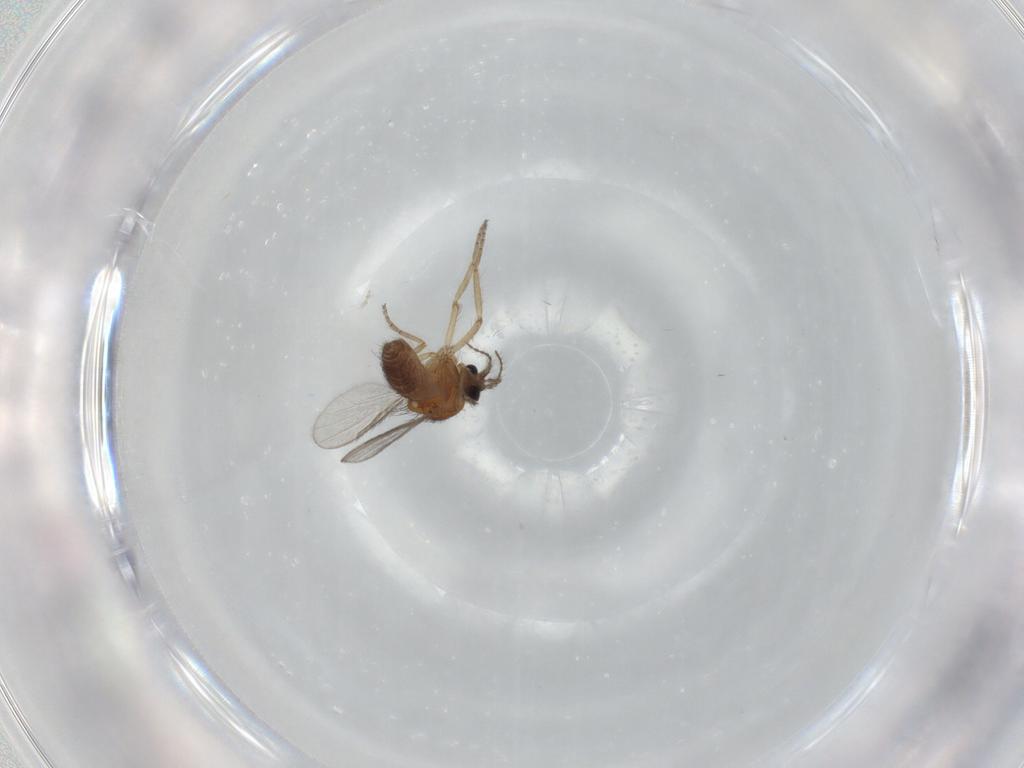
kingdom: Animalia
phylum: Arthropoda
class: Insecta
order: Diptera
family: Ceratopogonidae
